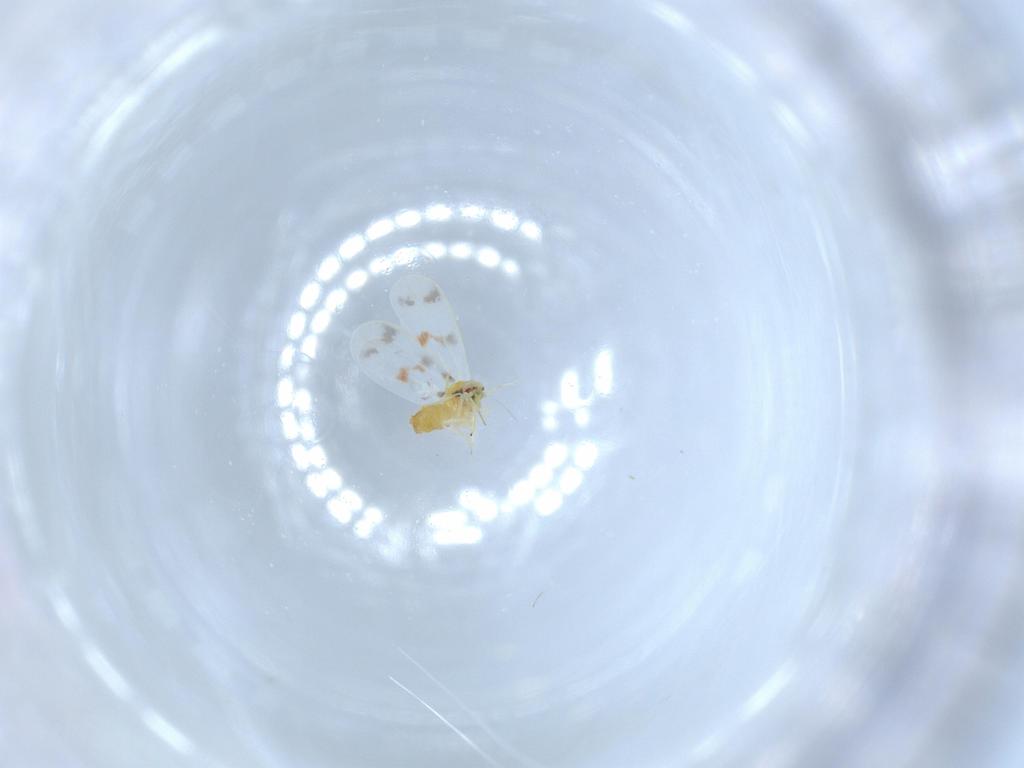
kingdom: Animalia
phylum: Arthropoda
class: Insecta
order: Hemiptera
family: Aleyrodidae
